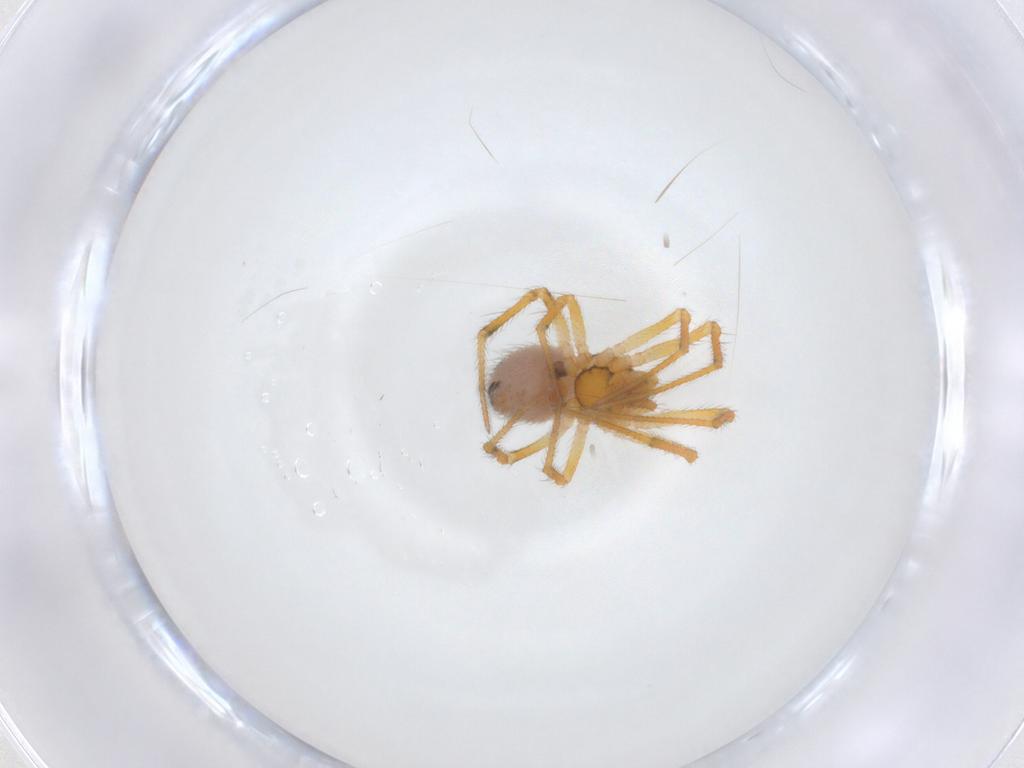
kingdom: Animalia
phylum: Arthropoda
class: Arachnida
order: Araneae
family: Theridiidae
